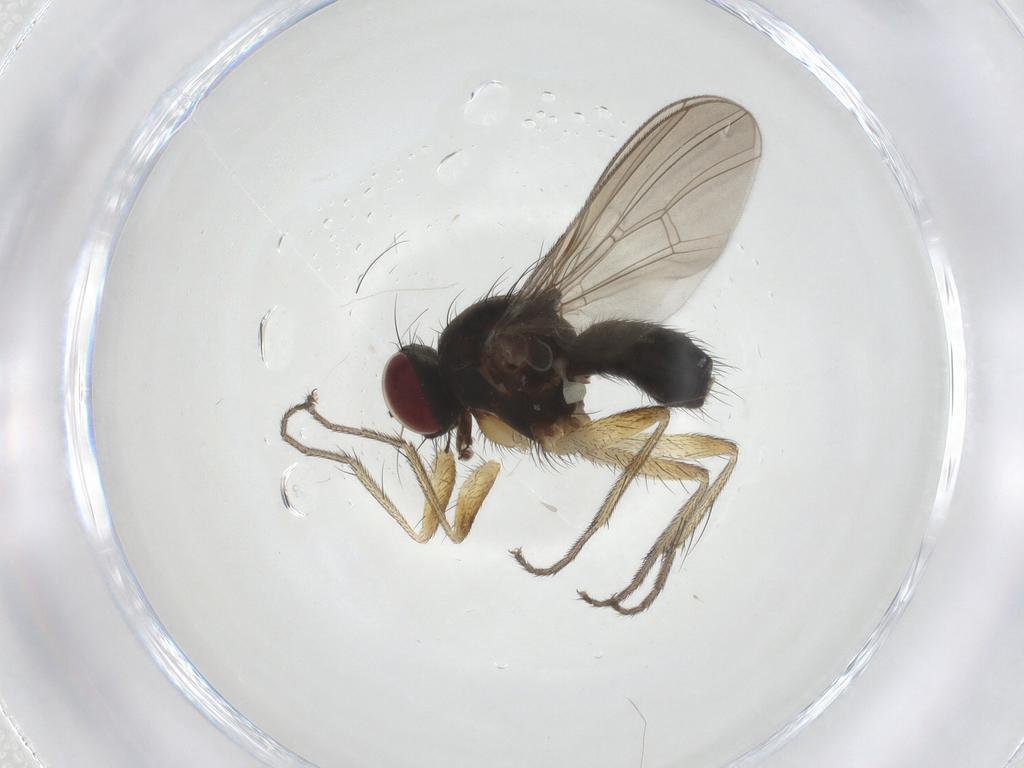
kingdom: Animalia
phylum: Arthropoda
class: Insecta
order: Diptera
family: Muscidae
